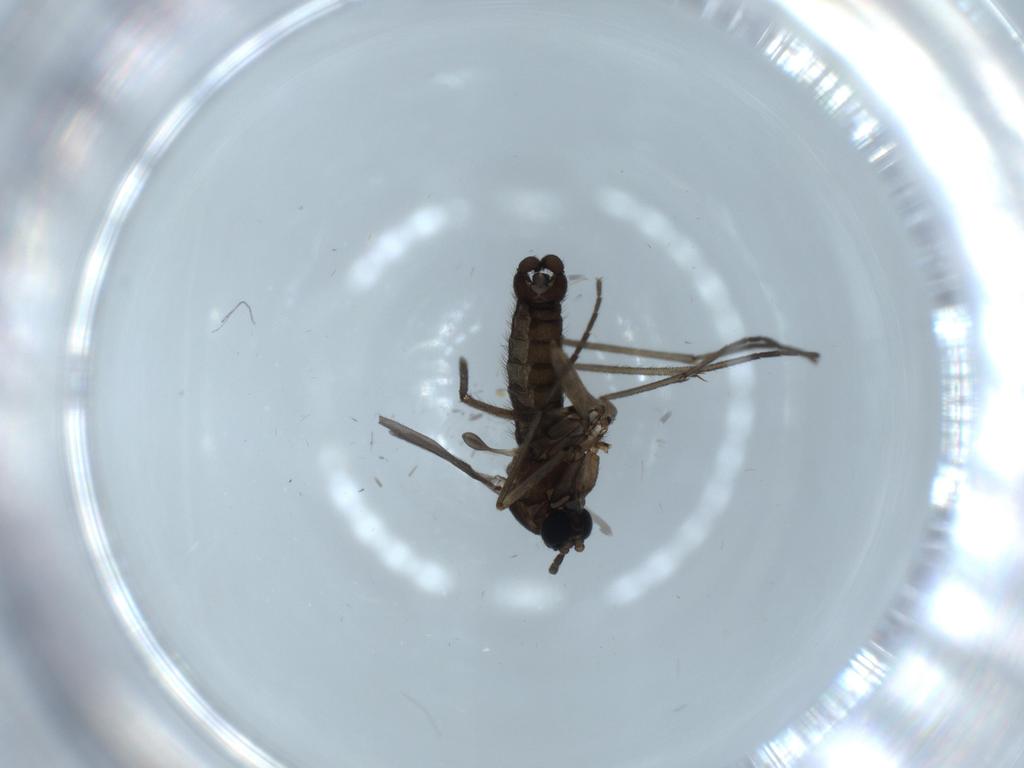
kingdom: Animalia
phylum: Arthropoda
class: Insecta
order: Diptera
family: Sciaridae
